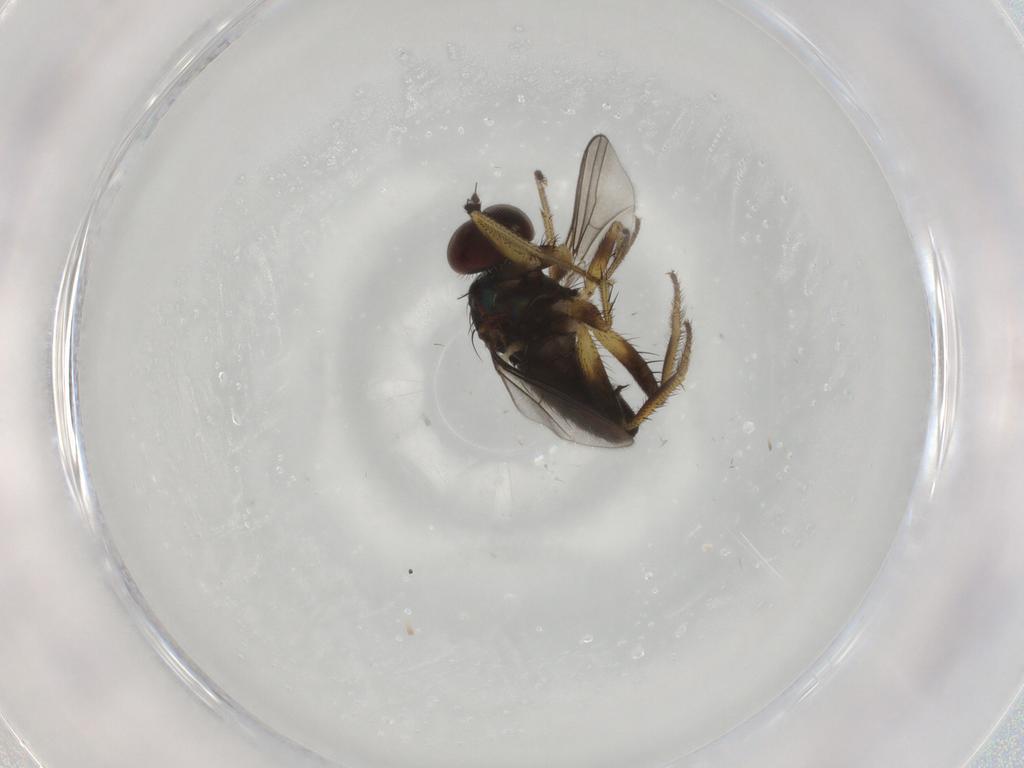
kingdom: Animalia
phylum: Arthropoda
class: Insecta
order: Diptera
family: Dolichopodidae
